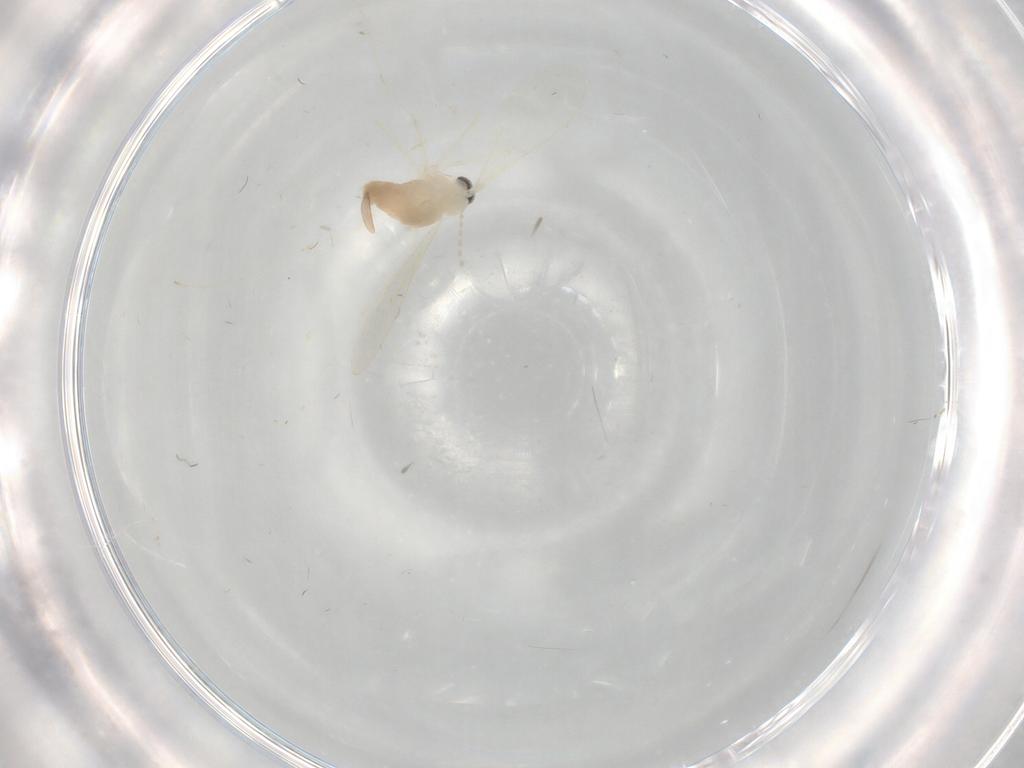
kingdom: Animalia
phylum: Arthropoda
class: Insecta
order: Diptera
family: Cecidomyiidae
